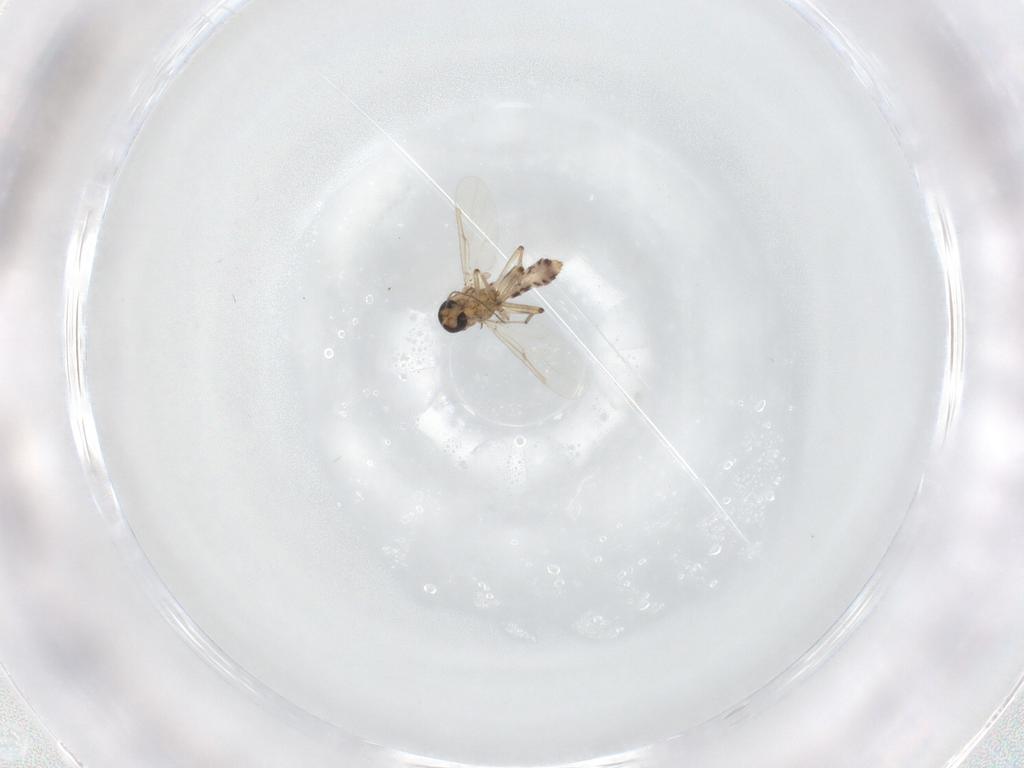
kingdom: Animalia
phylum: Arthropoda
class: Insecta
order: Diptera
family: Ceratopogonidae
